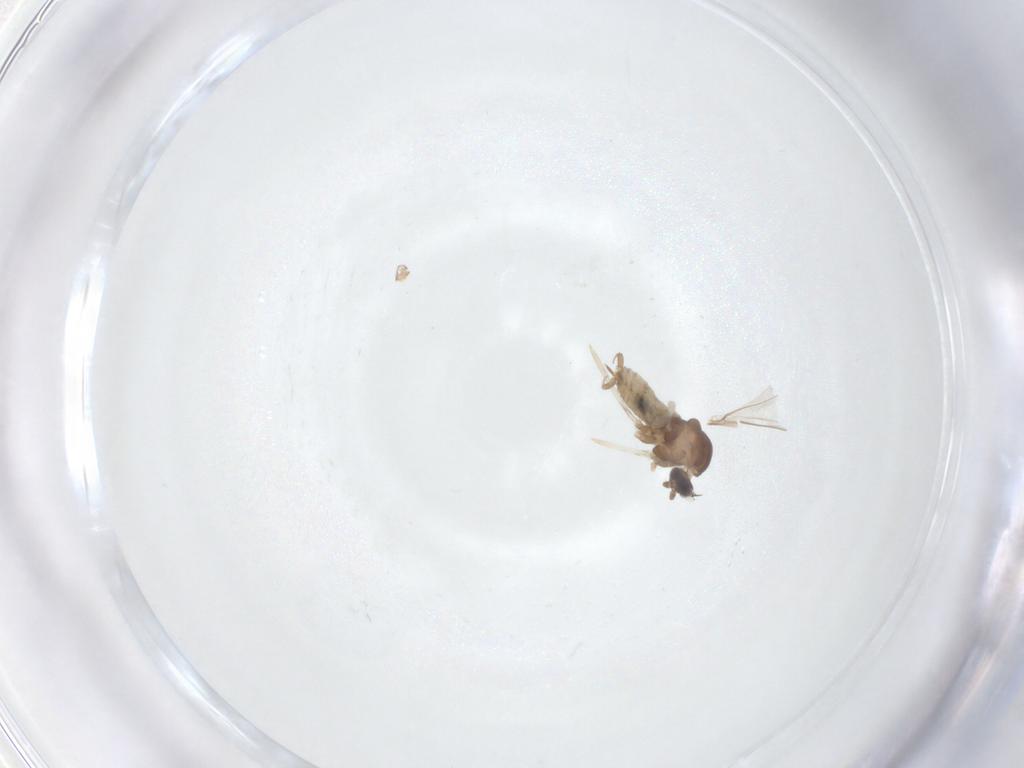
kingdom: Animalia
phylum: Arthropoda
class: Insecta
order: Diptera
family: Cecidomyiidae
